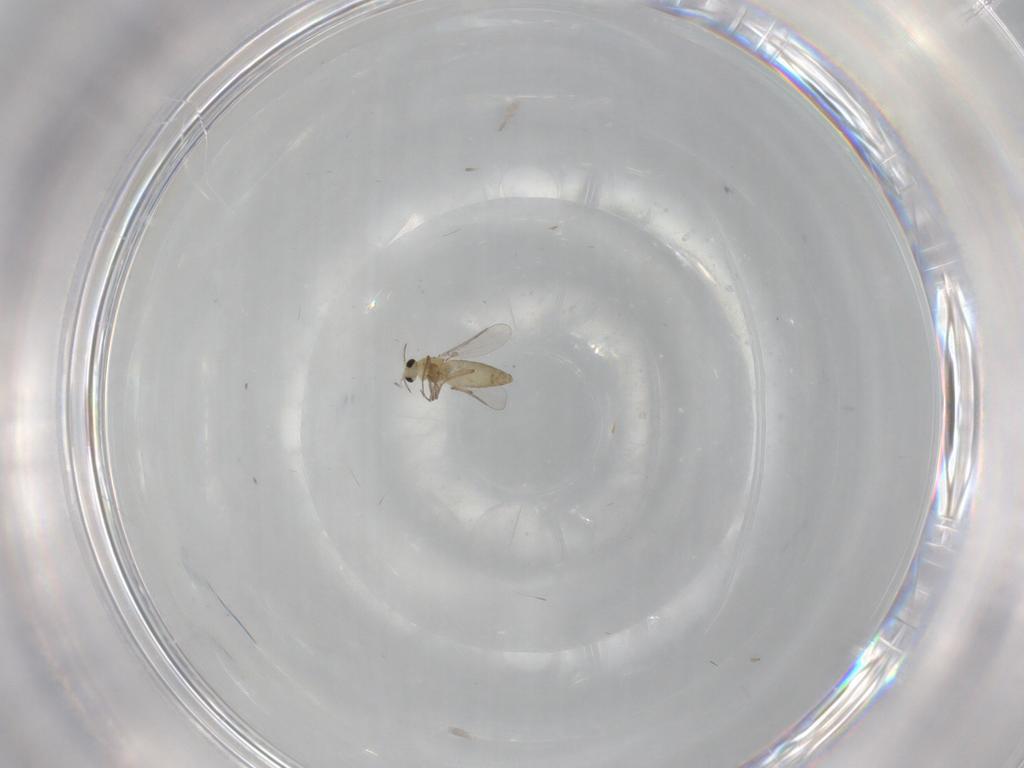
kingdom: Animalia
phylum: Arthropoda
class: Insecta
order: Diptera
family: Chironomidae
